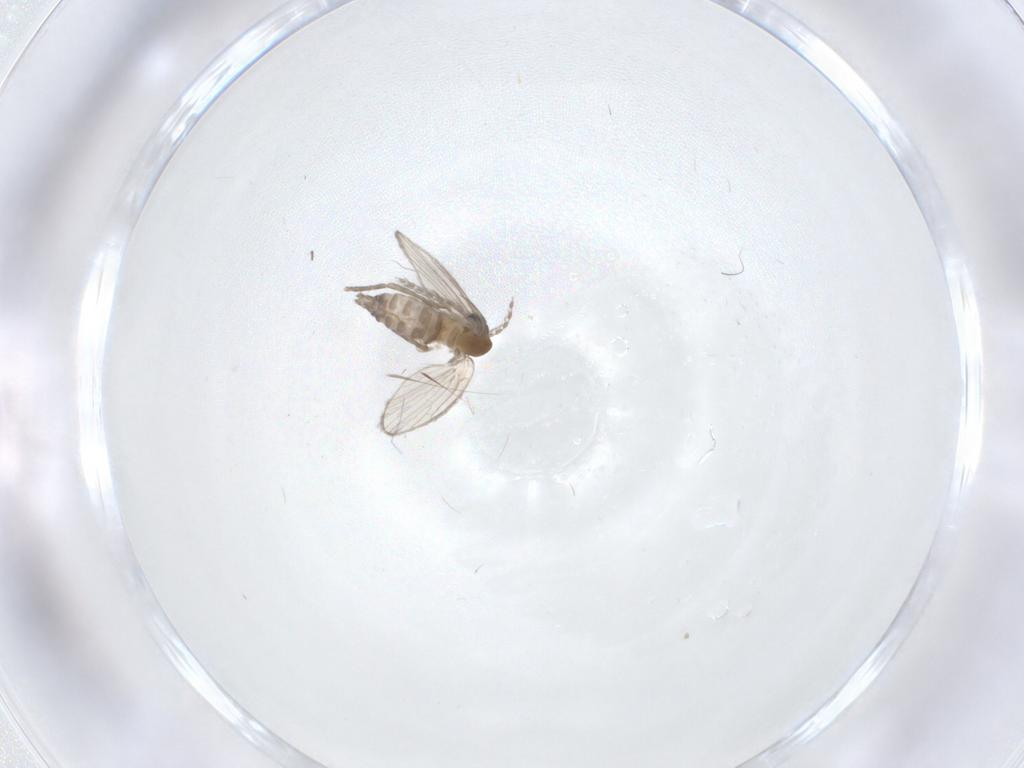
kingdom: Animalia
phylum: Arthropoda
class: Insecta
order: Diptera
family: Psychodidae
